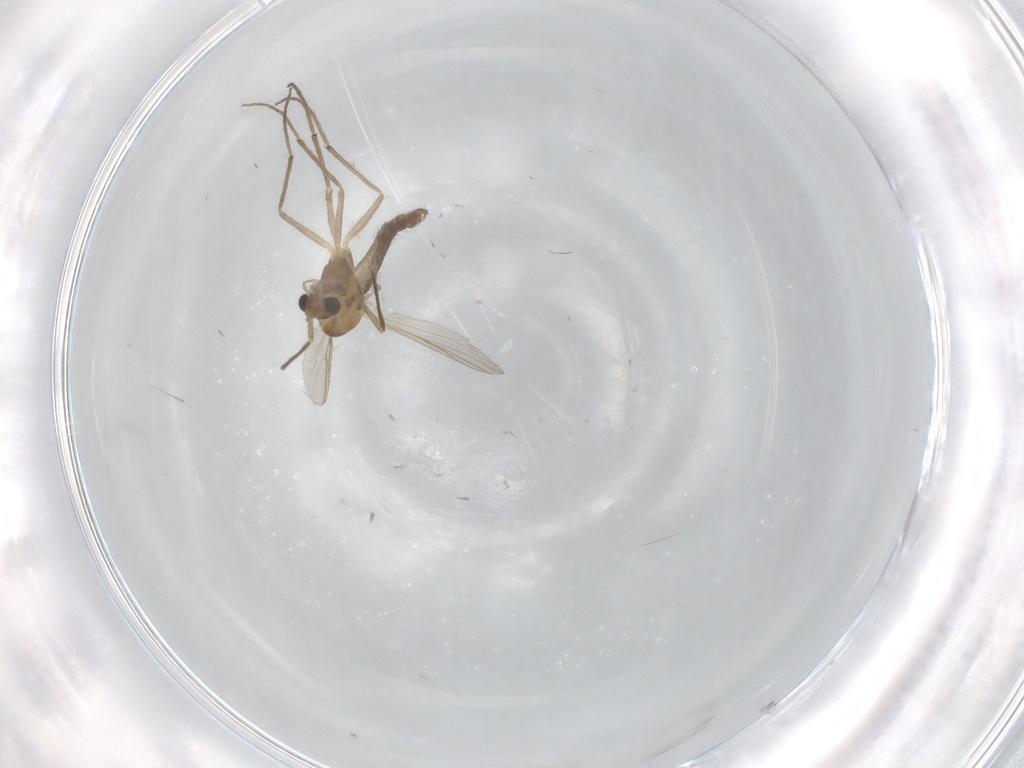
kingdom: Animalia
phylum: Arthropoda
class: Insecta
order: Diptera
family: Chironomidae
